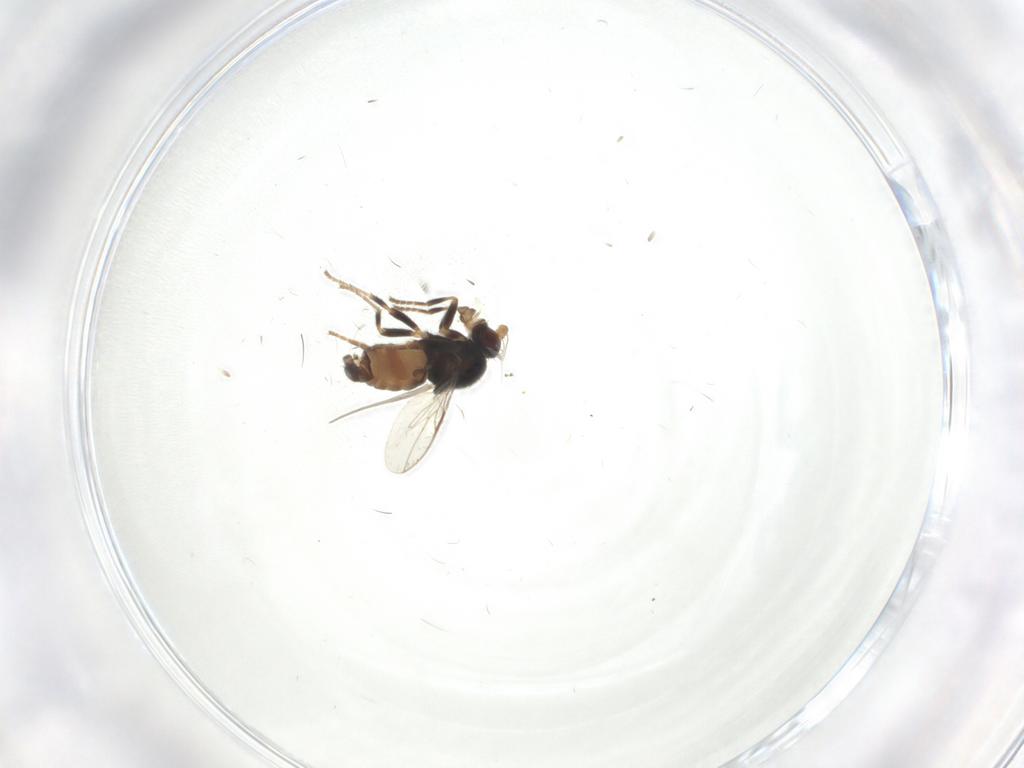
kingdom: Animalia
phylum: Arthropoda
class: Insecta
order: Diptera
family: Sphaeroceridae
